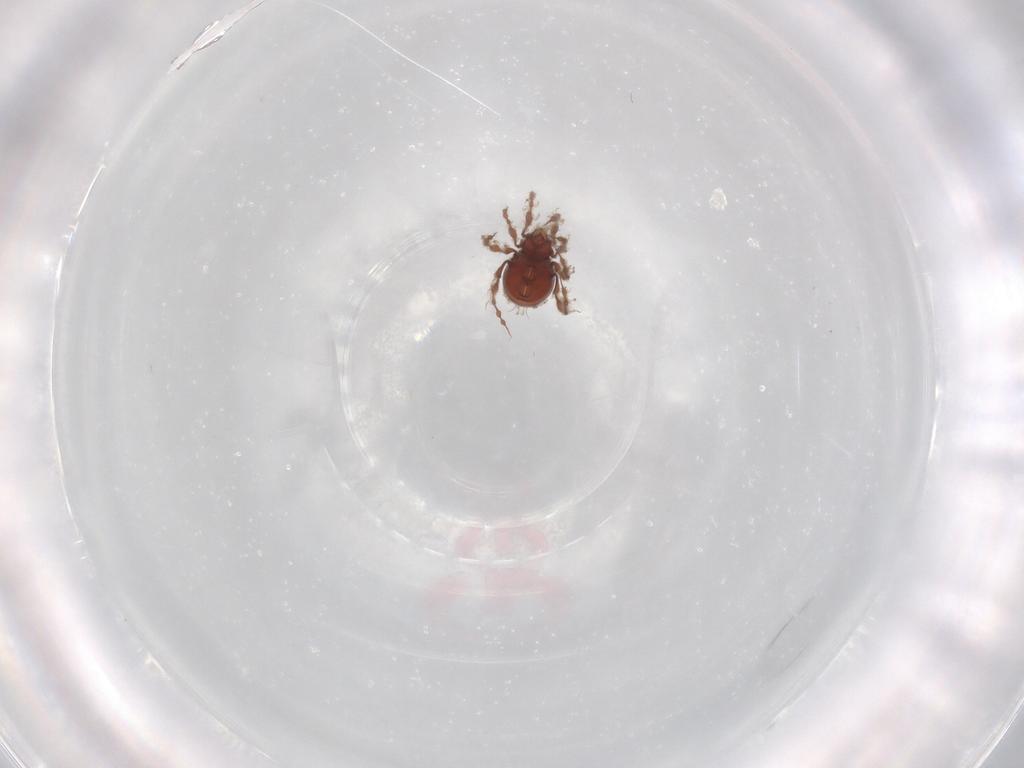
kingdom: Animalia
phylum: Arthropoda
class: Arachnida
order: Sarcoptiformes
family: Damaeidae
